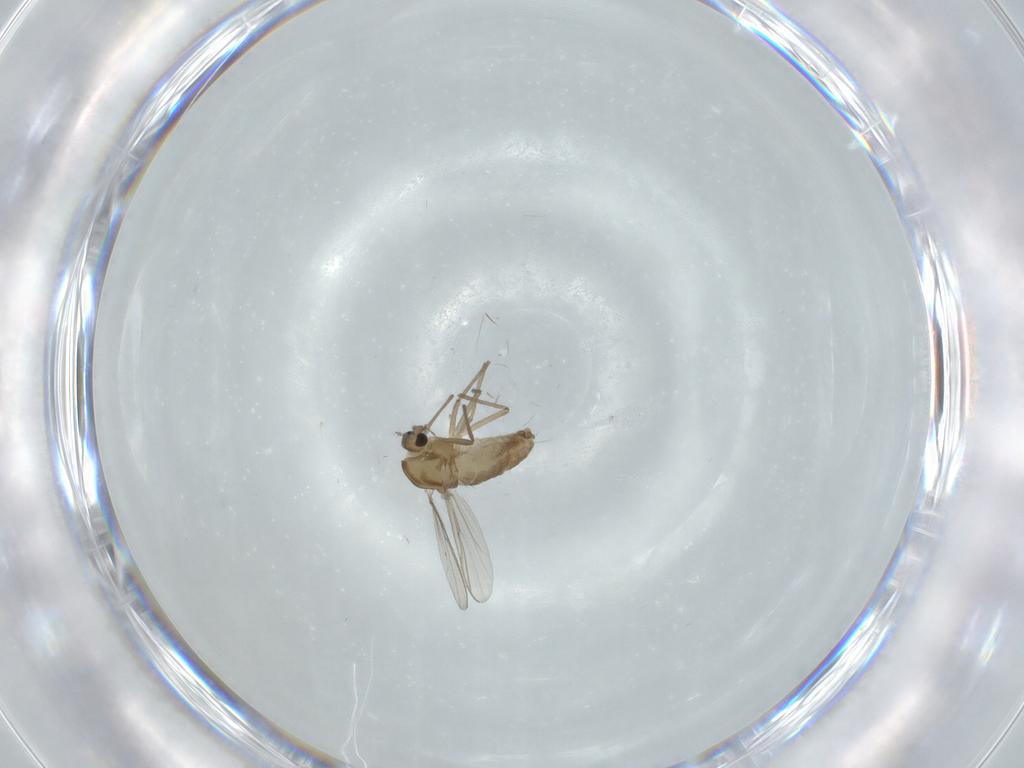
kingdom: Animalia
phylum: Arthropoda
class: Insecta
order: Diptera
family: Chironomidae
